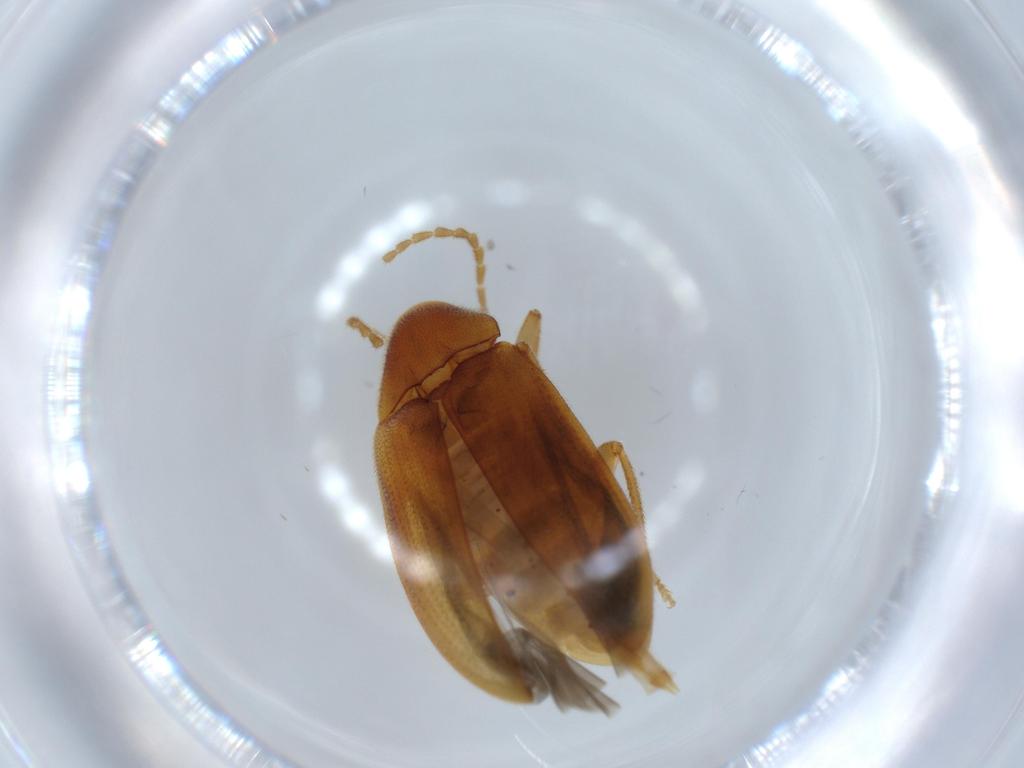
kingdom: Animalia
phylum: Arthropoda
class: Insecta
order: Coleoptera
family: Ptilodactylidae
